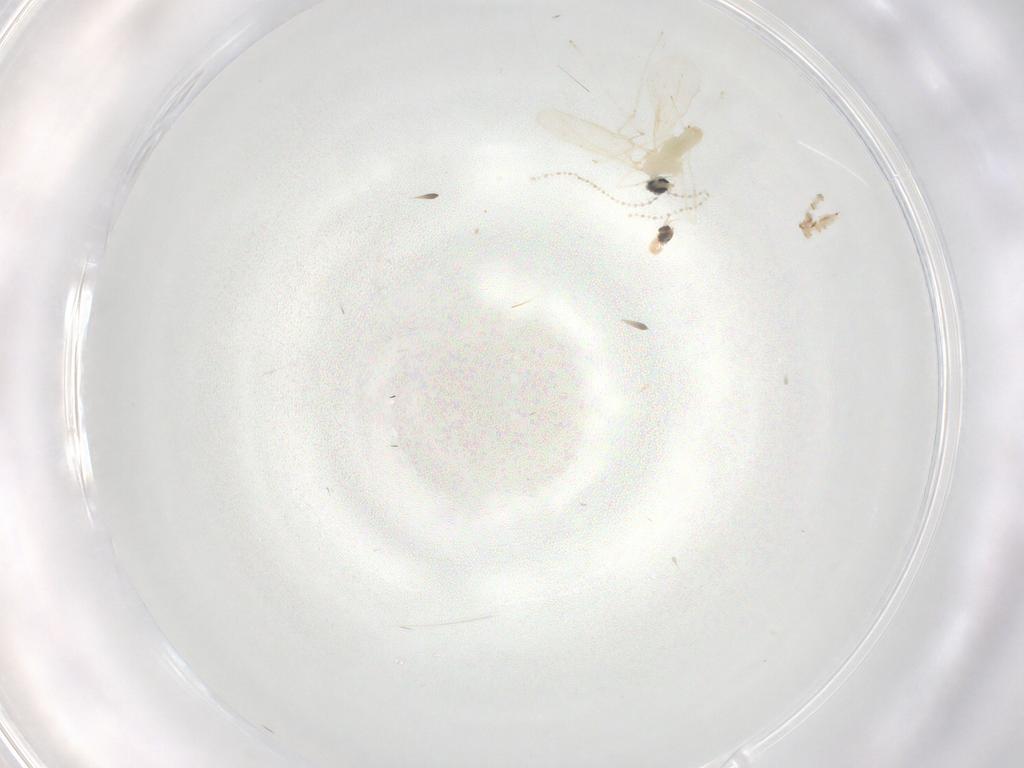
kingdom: Animalia
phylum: Arthropoda
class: Insecta
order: Diptera
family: Cecidomyiidae
